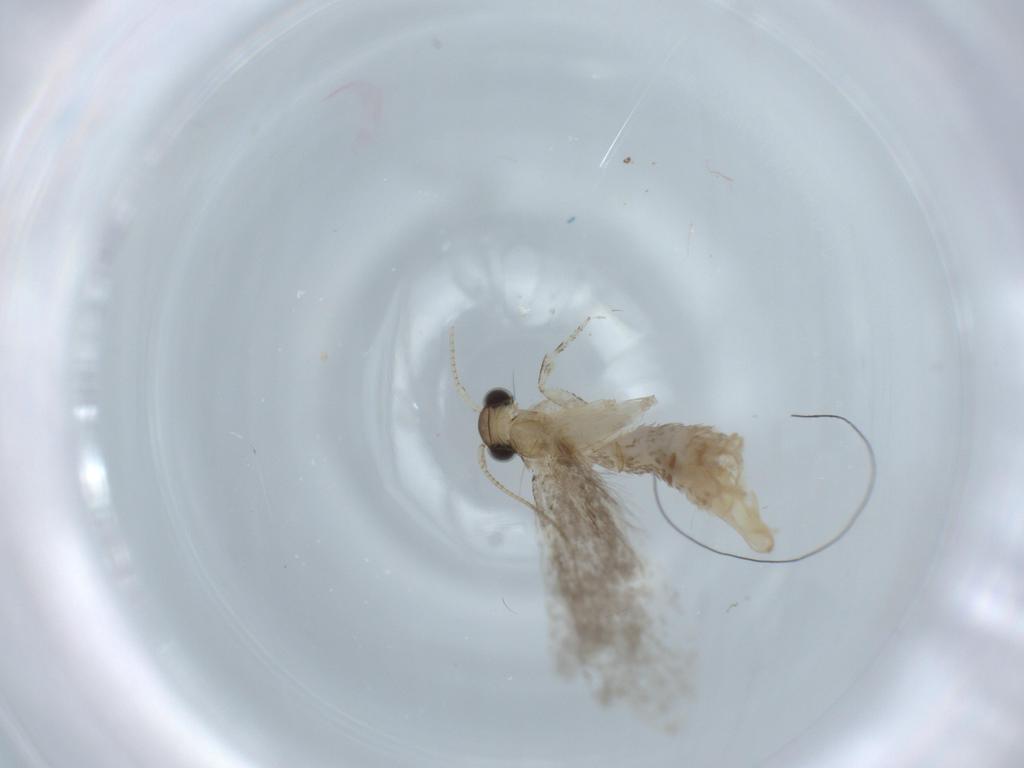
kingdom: Animalia
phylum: Arthropoda
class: Insecta
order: Lepidoptera
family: Tineidae
